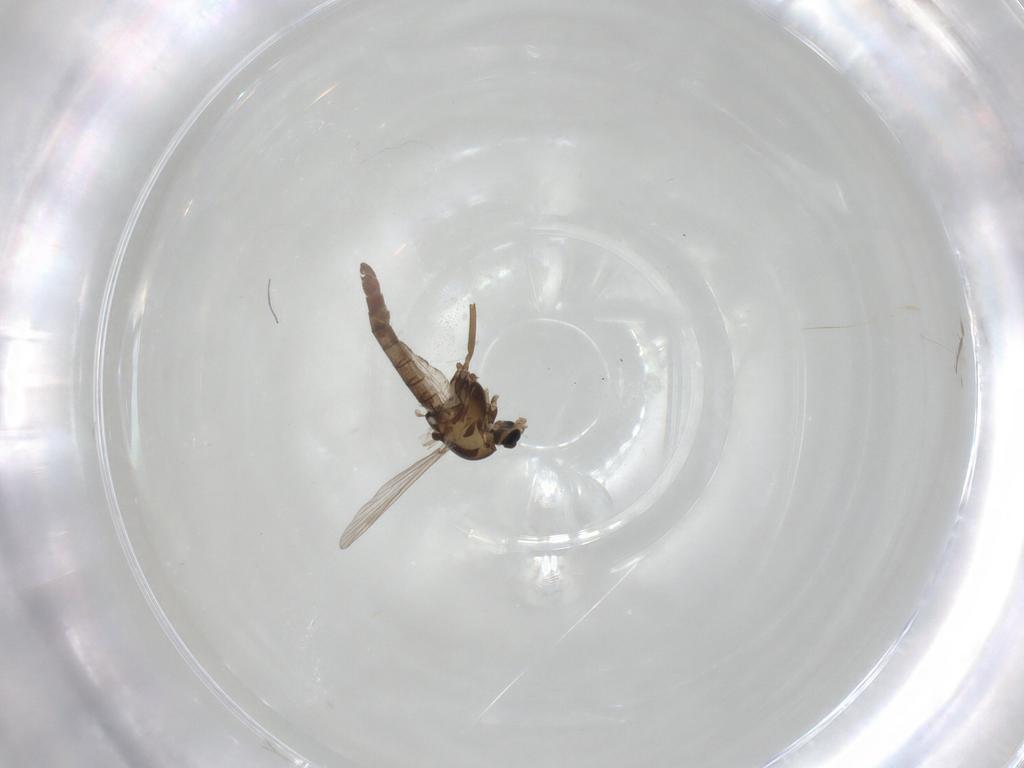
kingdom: Animalia
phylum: Arthropoda
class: Insecta
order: Diptera
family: Chironomidae
